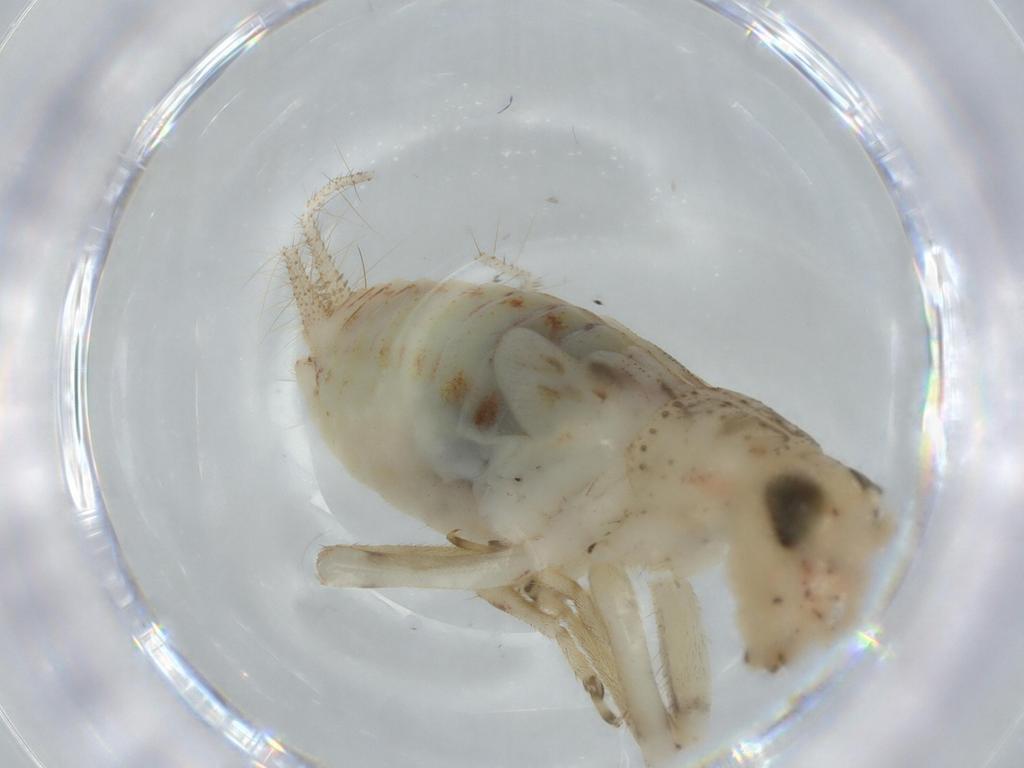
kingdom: Animalia
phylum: Arthropoda
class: Insecta
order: Orthoptera
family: Trigonidiidae
